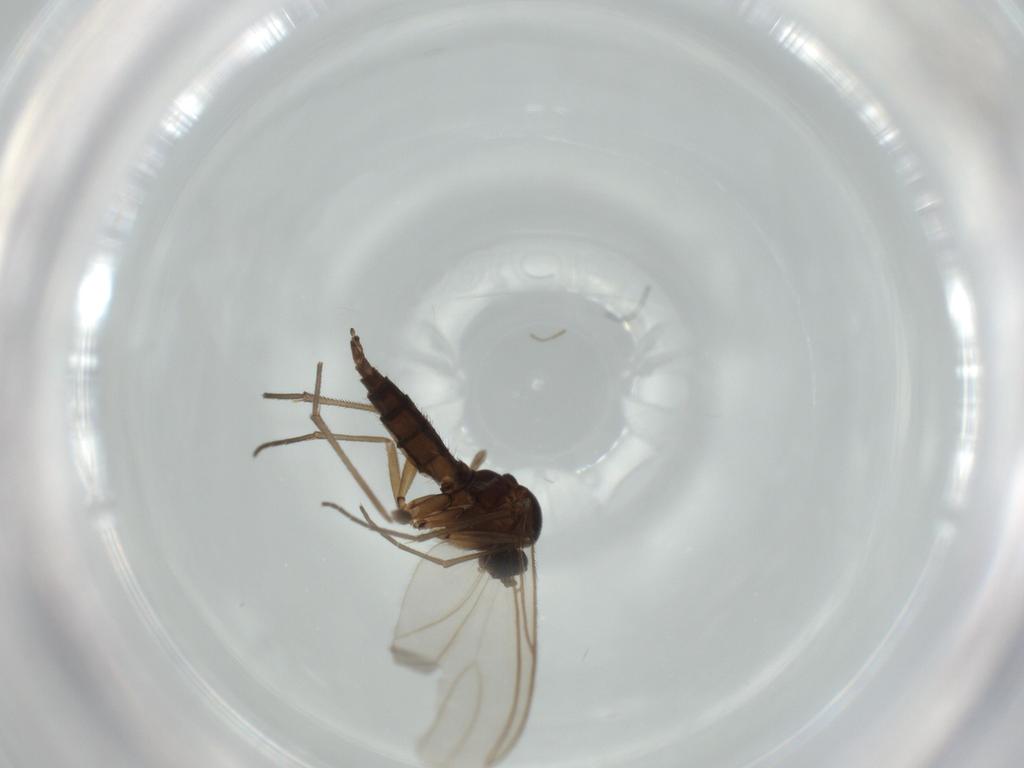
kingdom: Animalia
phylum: Arthropoda
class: Insecta
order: Diptera
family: Sciaridae
